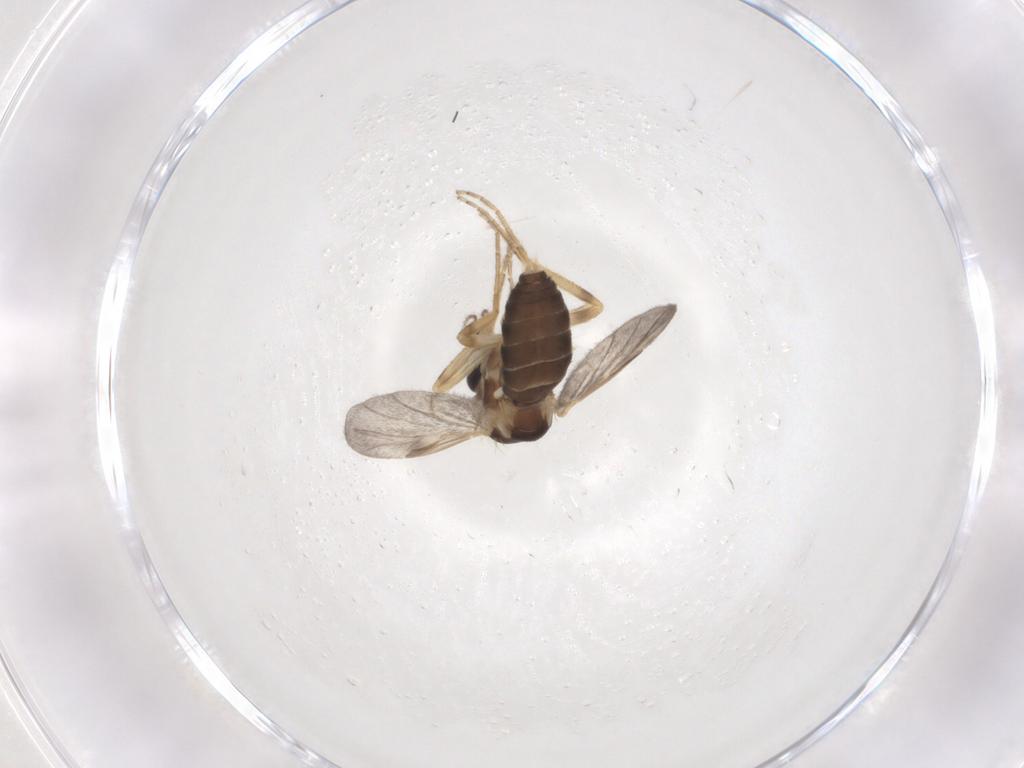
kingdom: Animalia
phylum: Arthropoda
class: Insecta
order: Diptera
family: Ceratopogonidae
